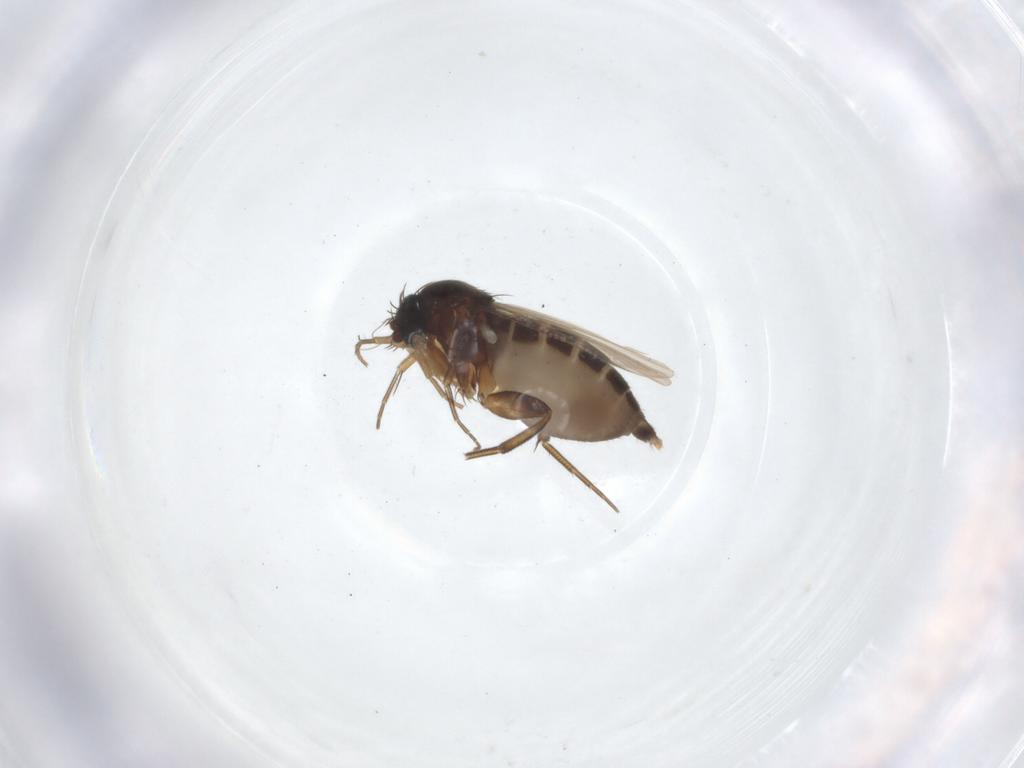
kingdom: Animalia
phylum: Arthropoda
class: Insecta
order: Diptera
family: Phoridae
